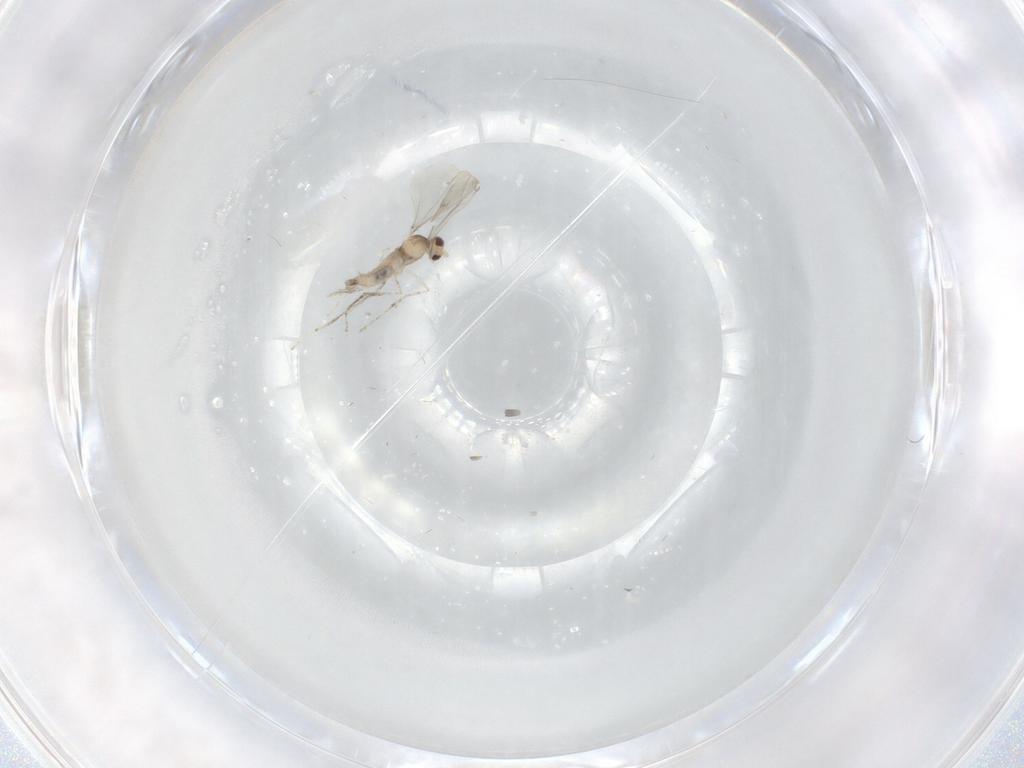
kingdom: Animalia
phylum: Arthropoda
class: Insecta
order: Diptera
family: Cecidomyiidae
